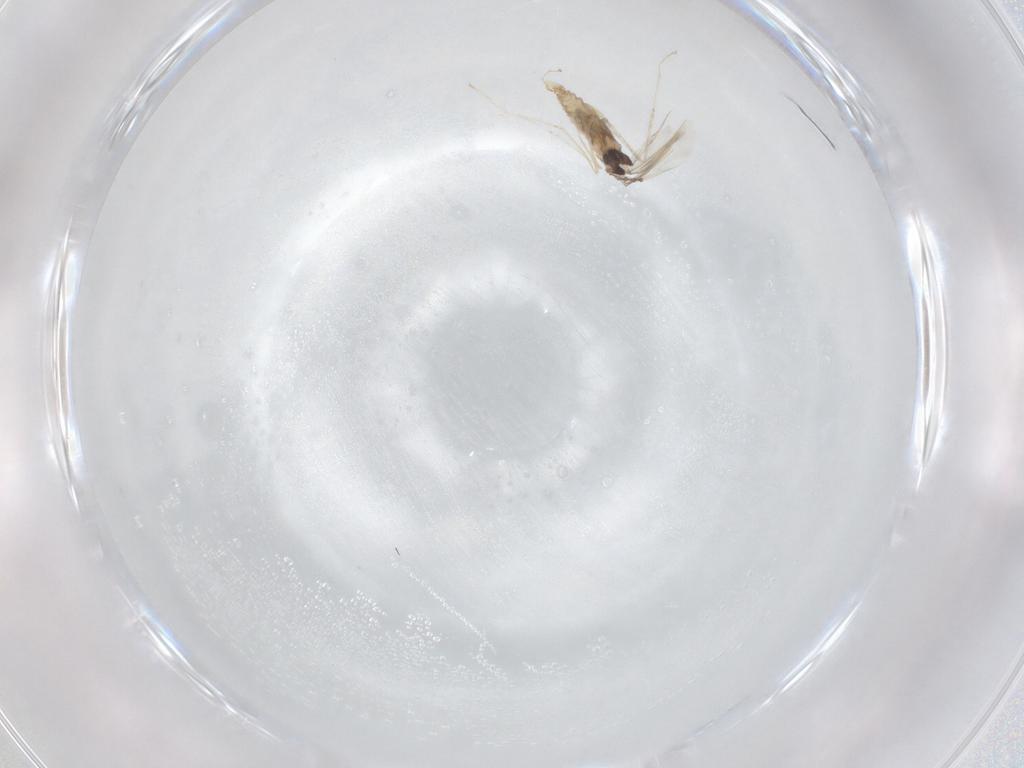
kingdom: Animalia
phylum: Arthropoda
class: Insecta
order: Diptera
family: Cecidomyiidae
